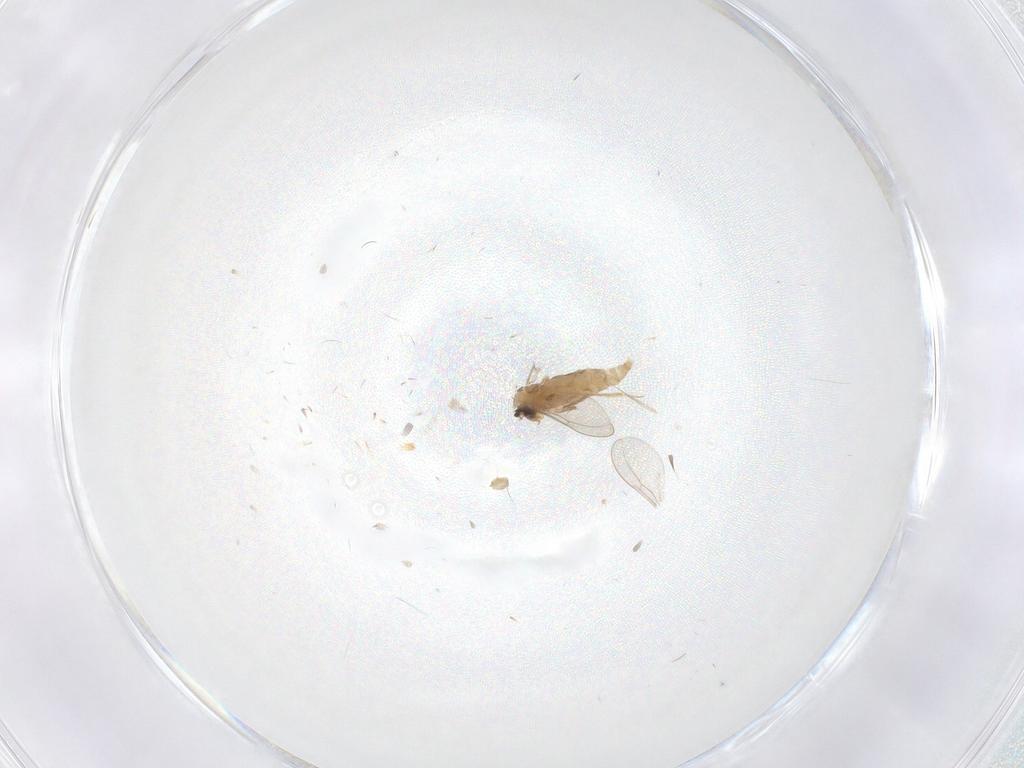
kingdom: Animalia
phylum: Arthropoda
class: Insecta
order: Diptera
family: Cecidomyiidae
